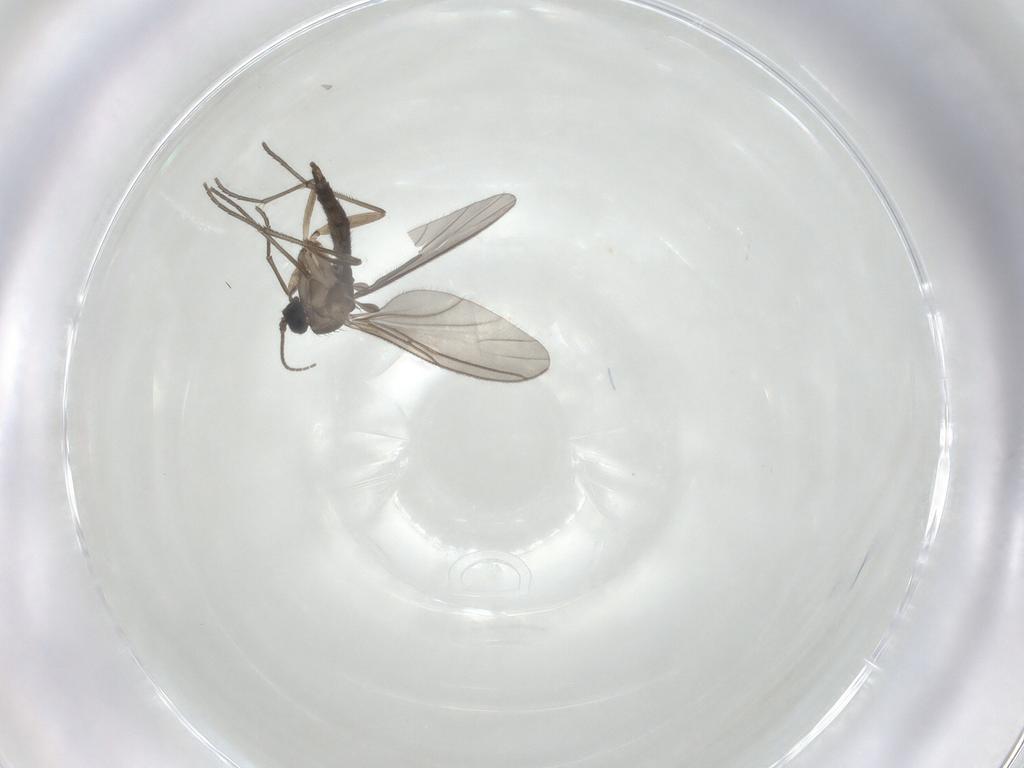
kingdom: Animalia
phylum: Arthropoda
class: Insecta
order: Diptera
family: Sciaridae
